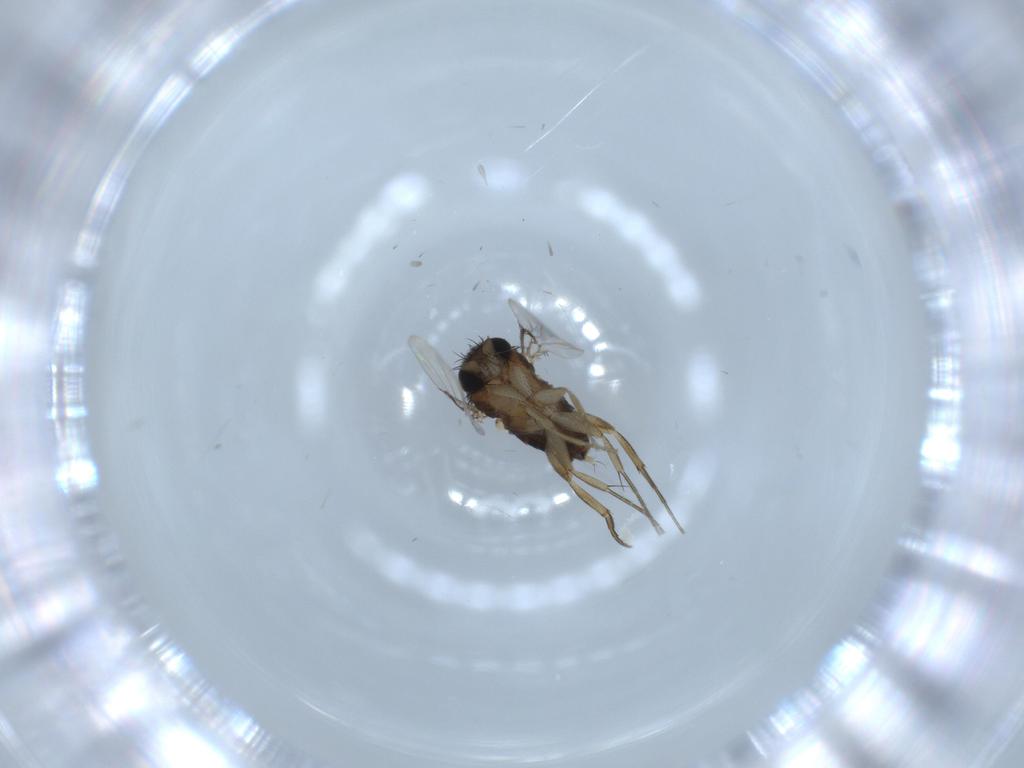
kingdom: Animalia
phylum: Arthropoda
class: Insecta
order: Diptera
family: Phoridae
